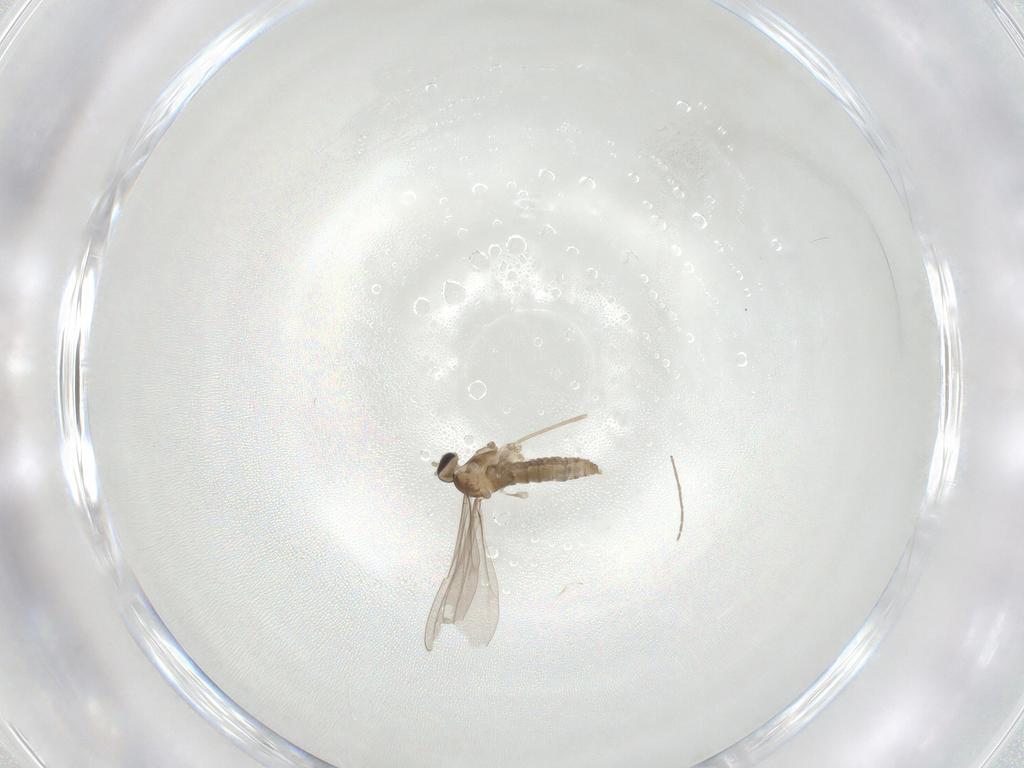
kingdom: Animalia
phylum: Arthropoda
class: Insecta
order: Diptera
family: Cecidomyiidae
